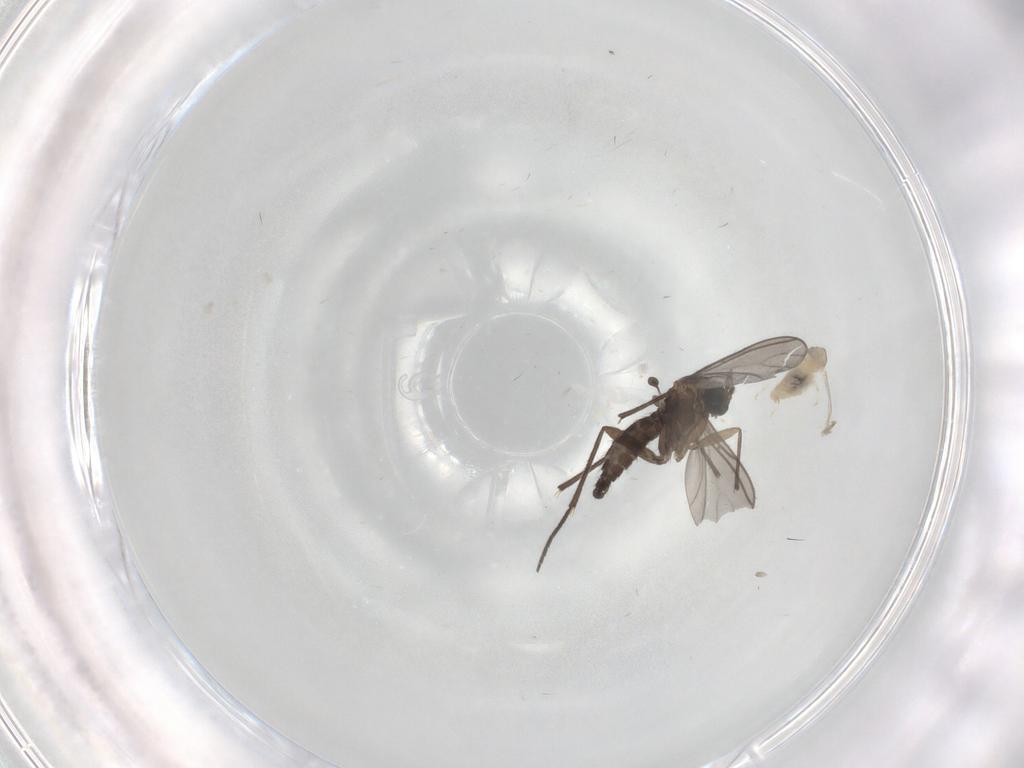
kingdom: Animalia
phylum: Arthropoda
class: Insecta
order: Diptera
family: Sciaridae
